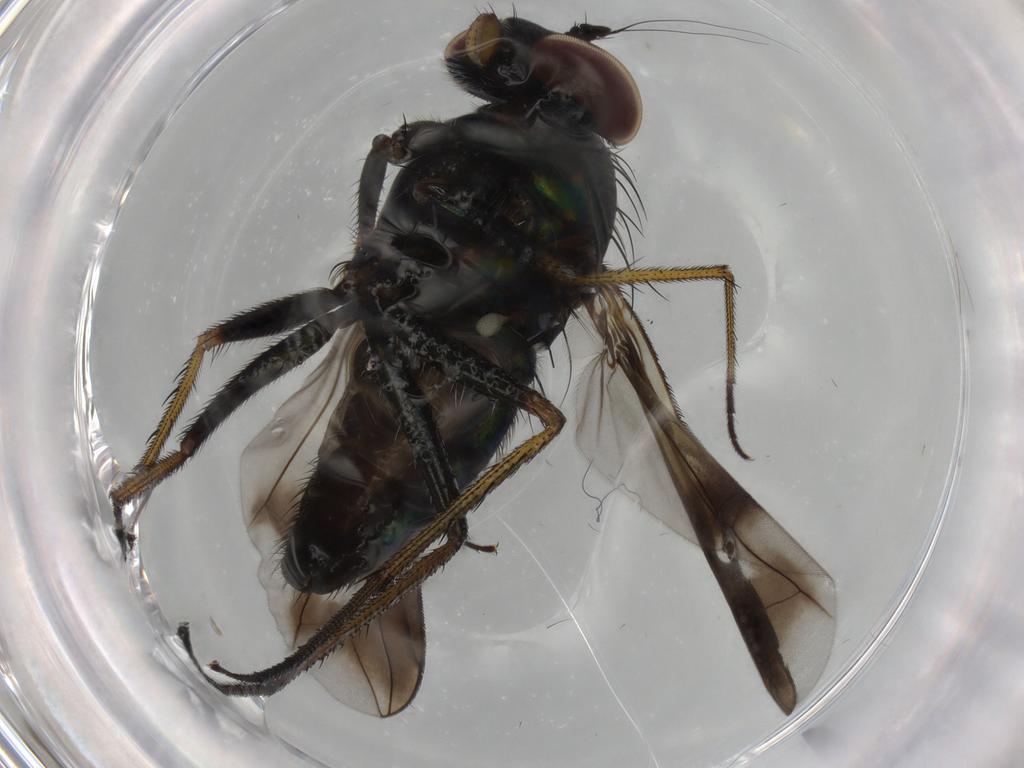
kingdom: Animalia
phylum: Arthropoda
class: Insecta
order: Diptera
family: Dolichopodidae
